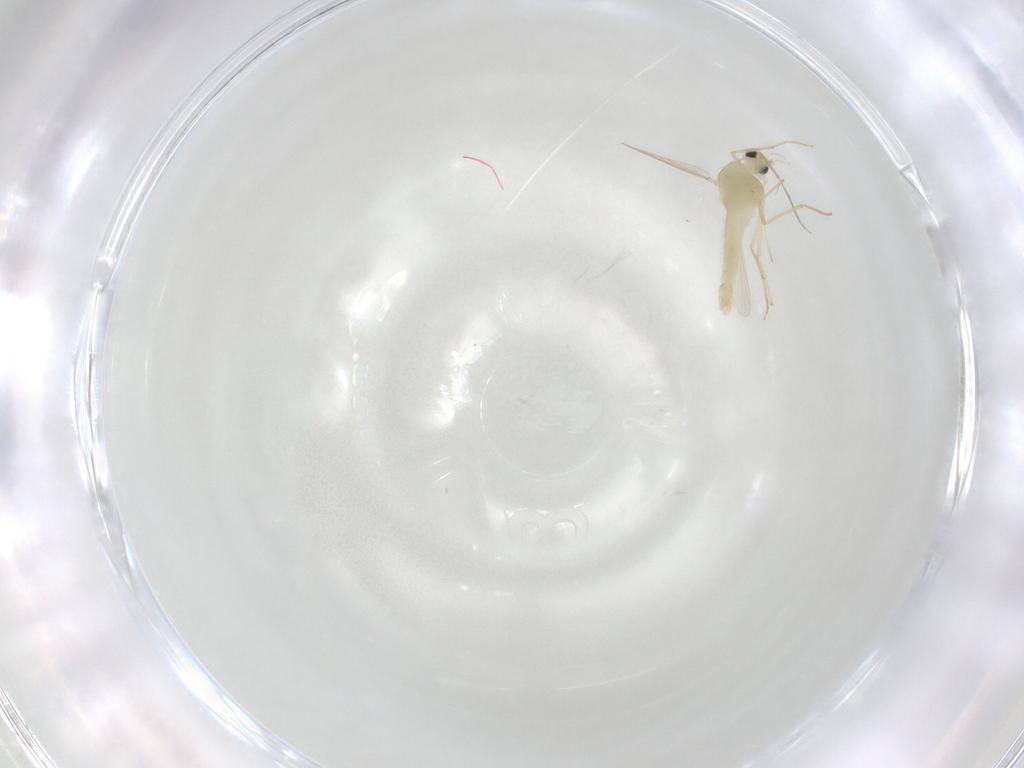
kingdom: Animalia
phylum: Arthropoda
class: Insecta
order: Diptera
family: Chironomidae
